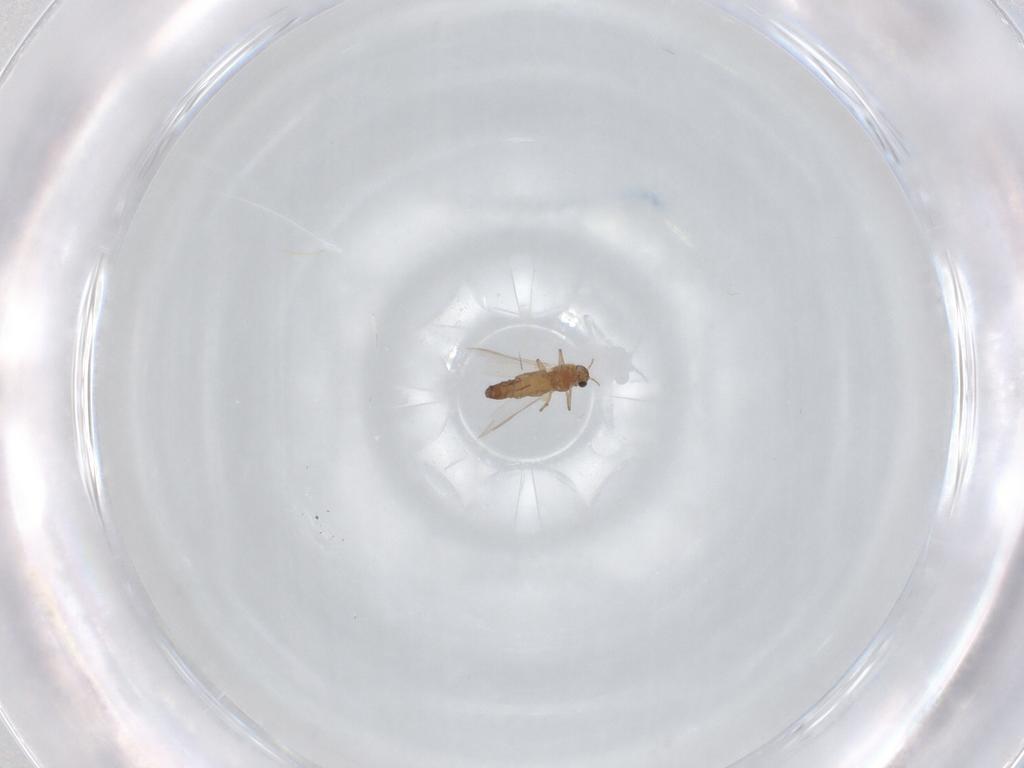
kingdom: Animalia
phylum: Arthropoda
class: Insecta
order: Diptera
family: Chironomidae
